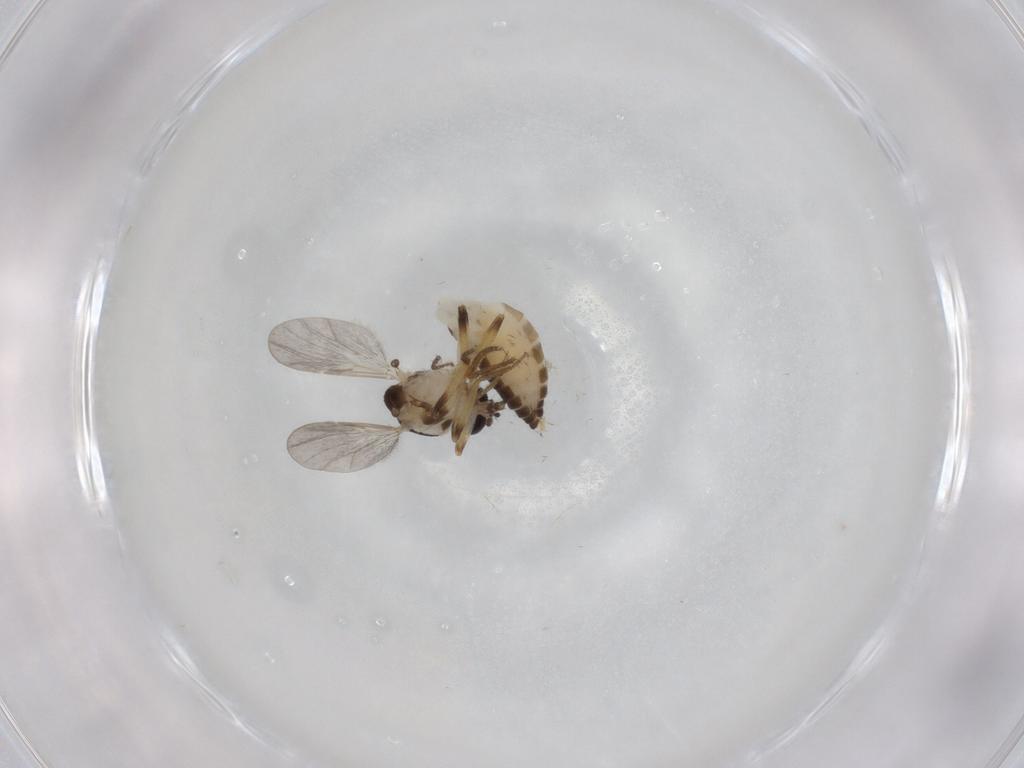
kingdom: Animalia
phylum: Arthropoda
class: Insecta
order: Diptera
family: Ceratopogonidae
